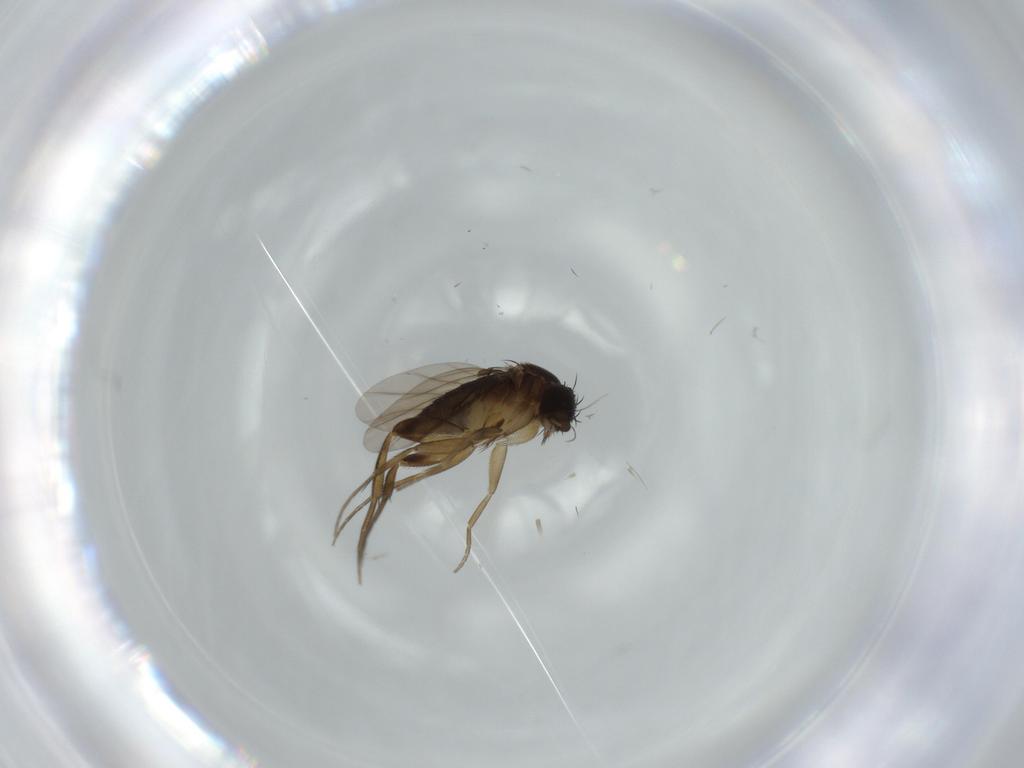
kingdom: Animalia
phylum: Arthropoda
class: Insecta
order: Diptera
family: Phoridae
